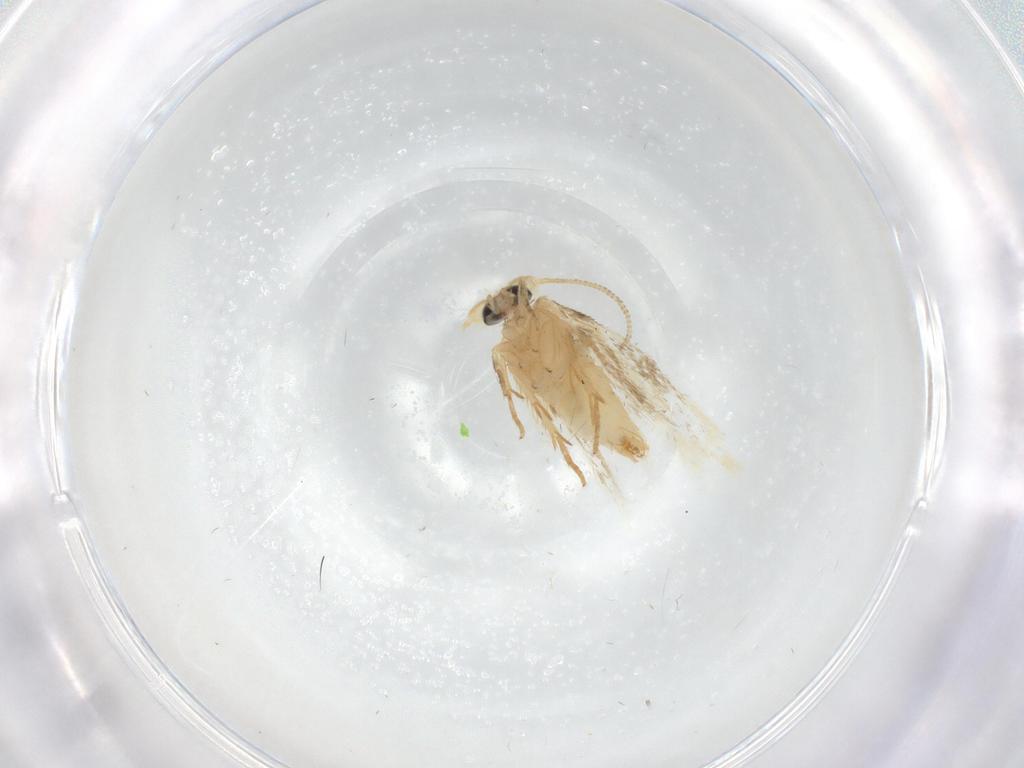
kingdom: Animalia
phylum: Arthropoda
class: Insecta
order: Lepidoptera
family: Nepticulidae
